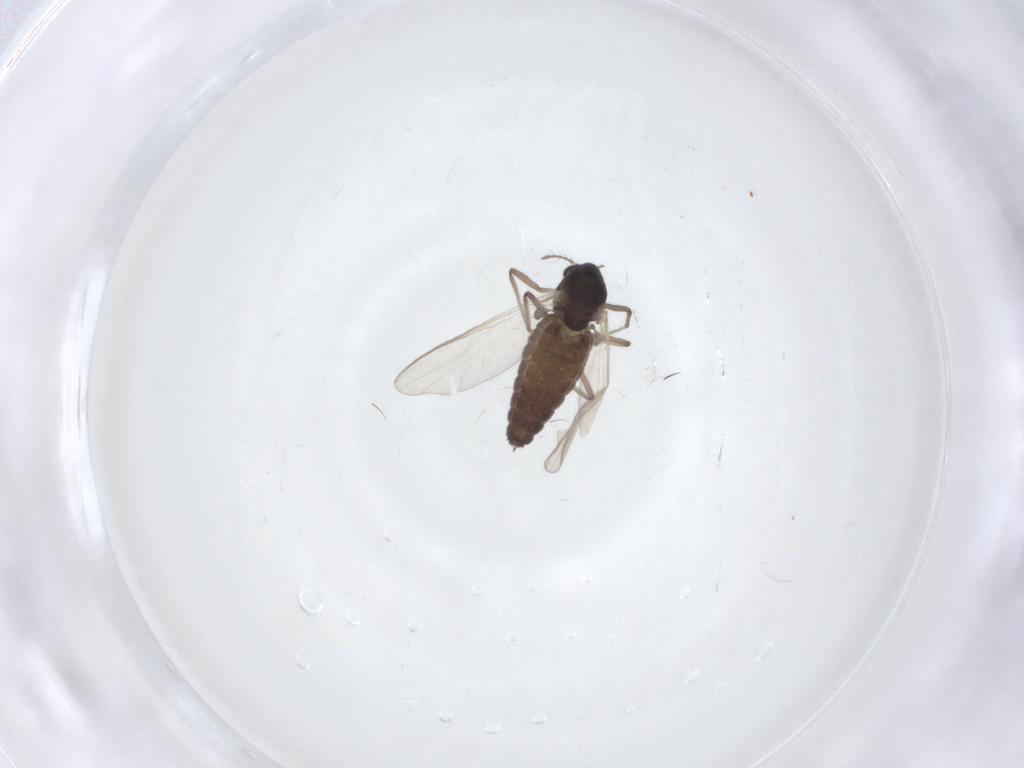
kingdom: Animalia
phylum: Arthropoda
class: Insecta
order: Diptera
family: Chironomidae
